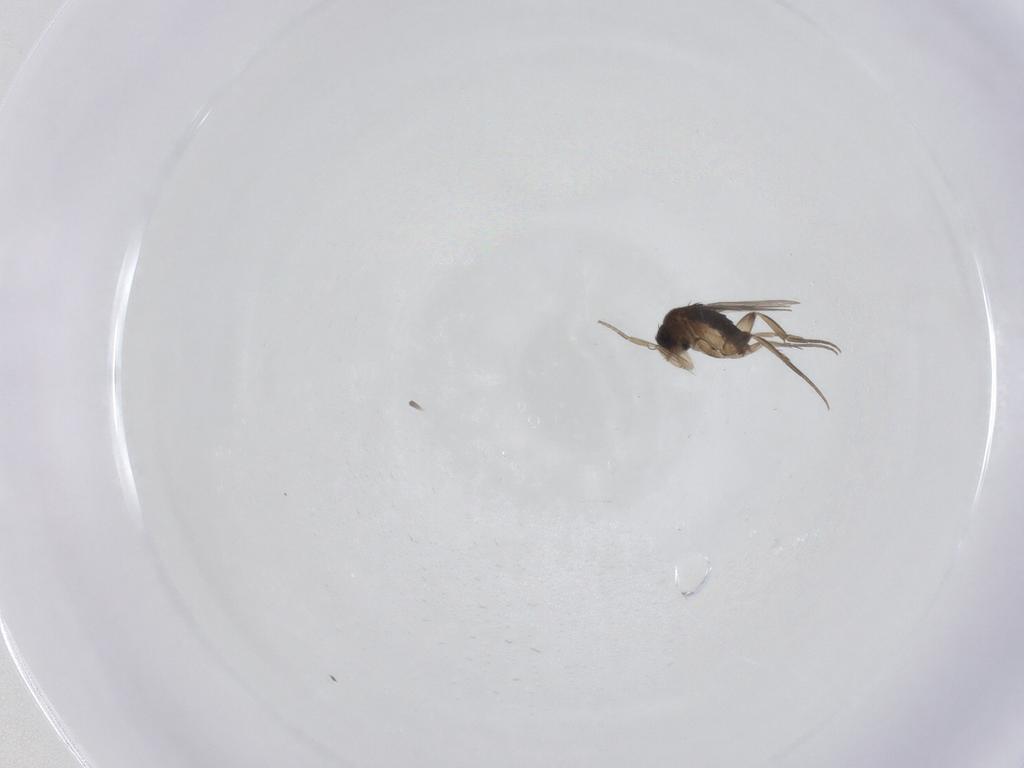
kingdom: Animalia
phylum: Arthropoda
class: Insecta
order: Diptera
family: Phoridae
